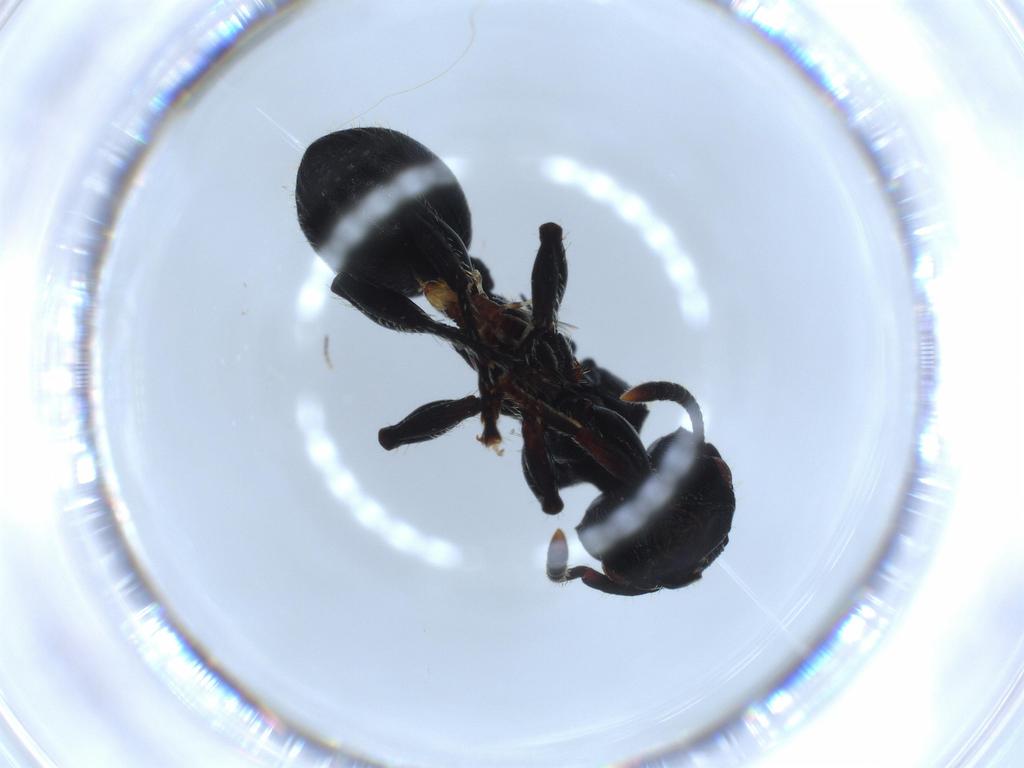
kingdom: Animalia
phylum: Arthropoda
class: Insecta
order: Hymenoptera
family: Formicidae
